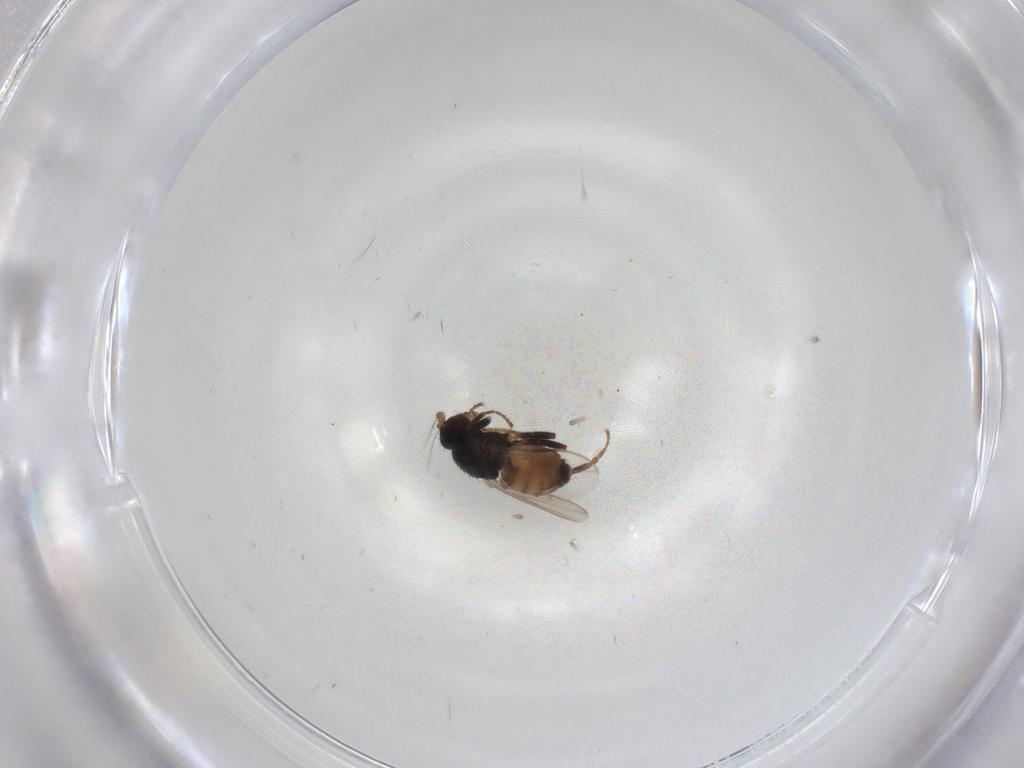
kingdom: Animalia
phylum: Arthropoda
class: Insecta
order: Diptera
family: Sphaeroceridae
